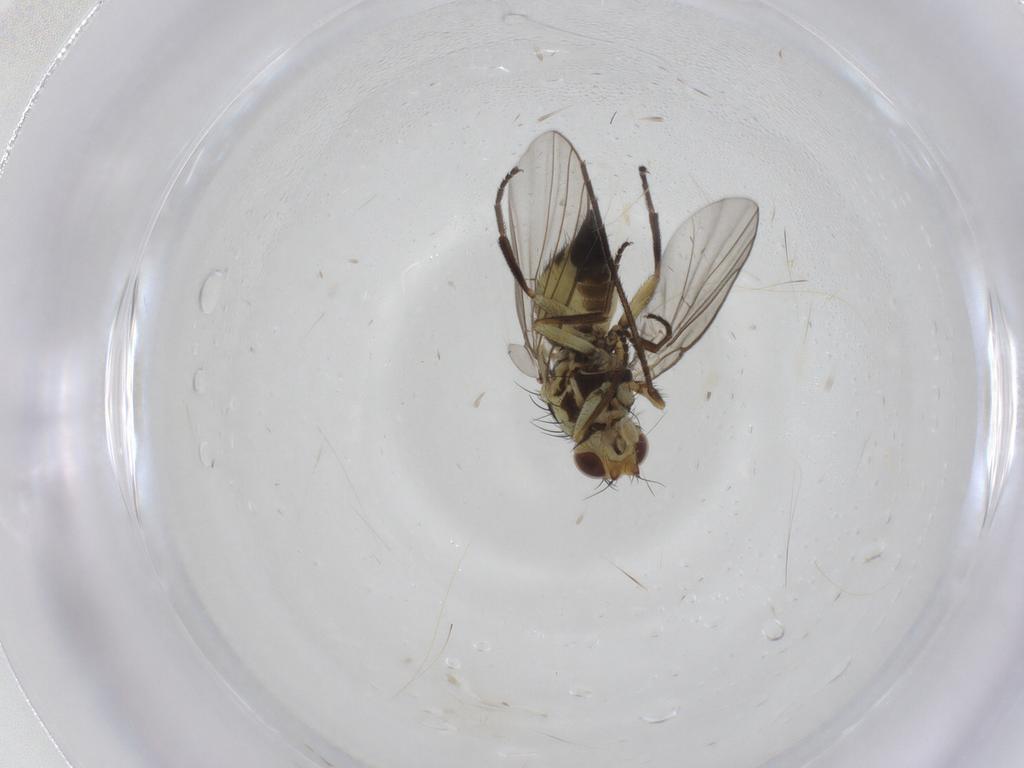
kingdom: Animalia
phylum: Arthropoda
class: Insecta
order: Diptera
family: Agromyzidae
